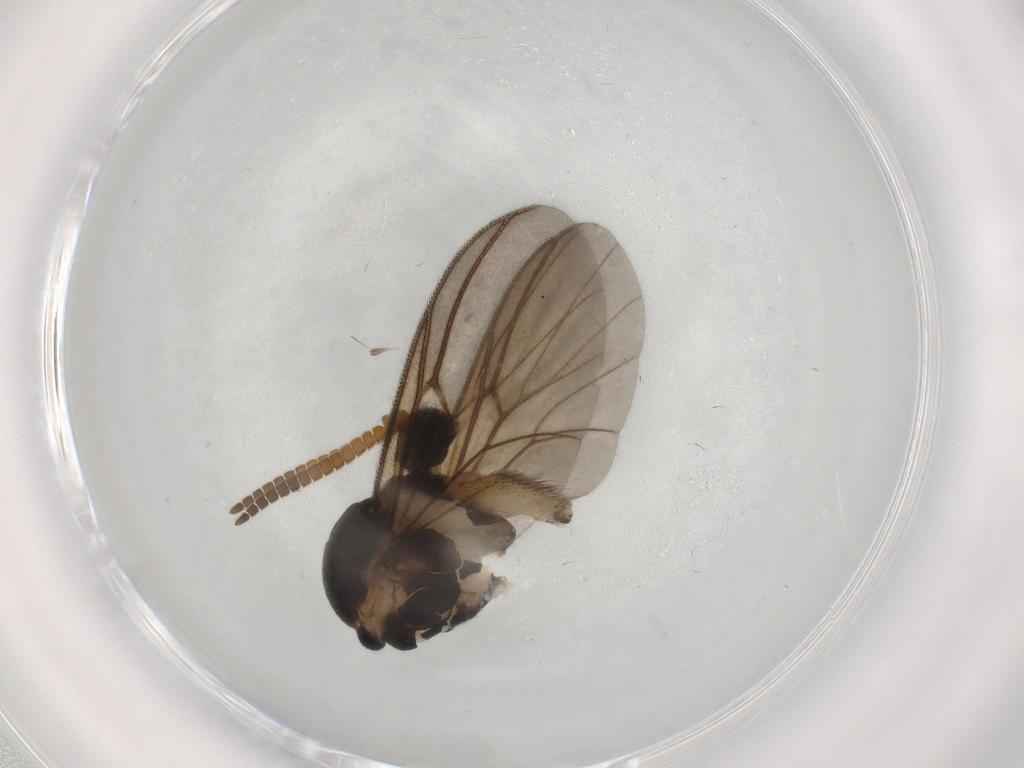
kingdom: Animalia
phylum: Arthropoda
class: Insecta
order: Diptera
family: Mycetophilidae
